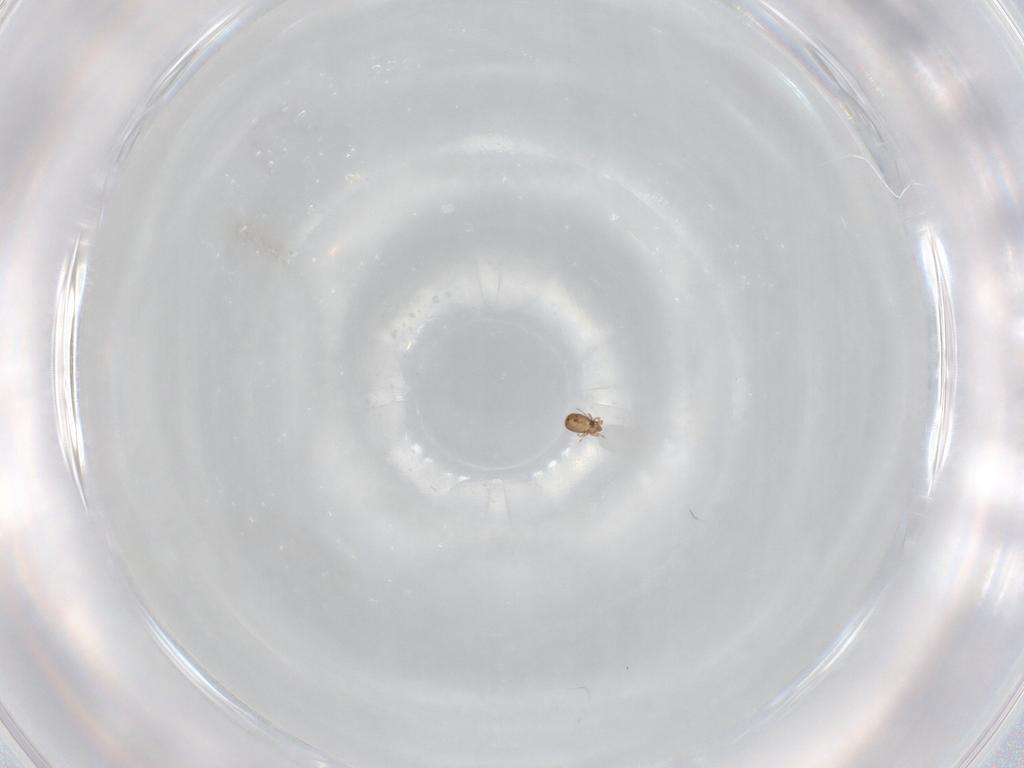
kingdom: Animalia
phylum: Arthropoda
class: Arachnida
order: Sarcoptiformes
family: Micreremidae
